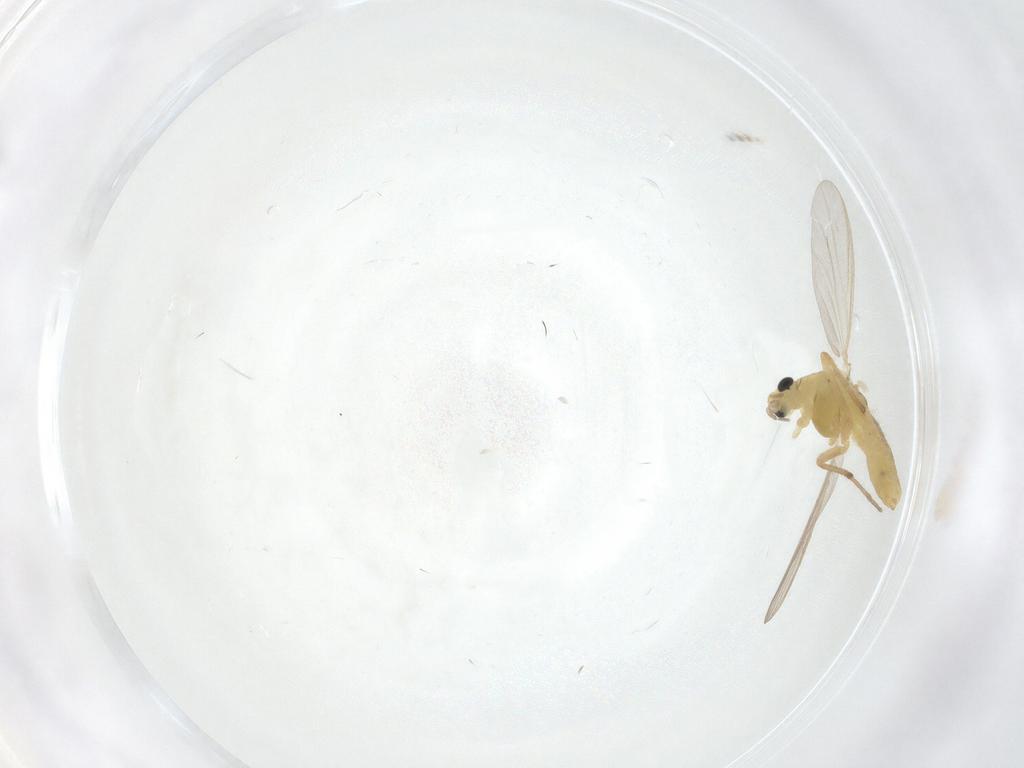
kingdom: Animalia
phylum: Arthropoda
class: Insecta
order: Diptera
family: Chironomidae
